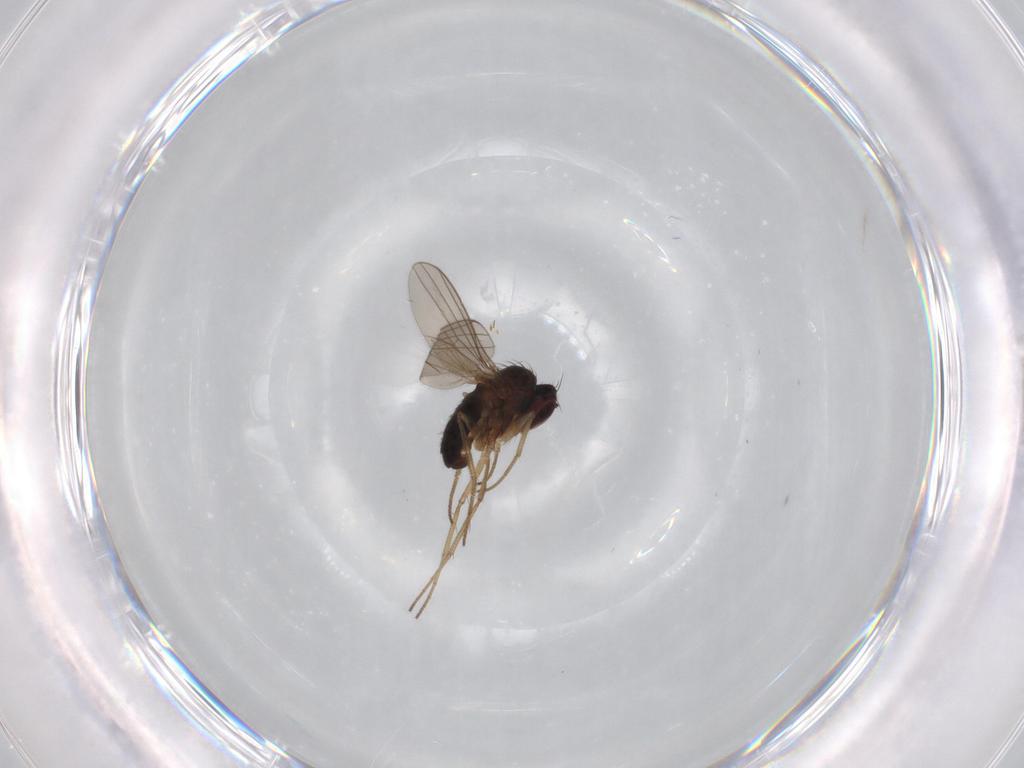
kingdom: Animalia
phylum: Arthropoda
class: Insecta
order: Diptera
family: Dolichopodidae
